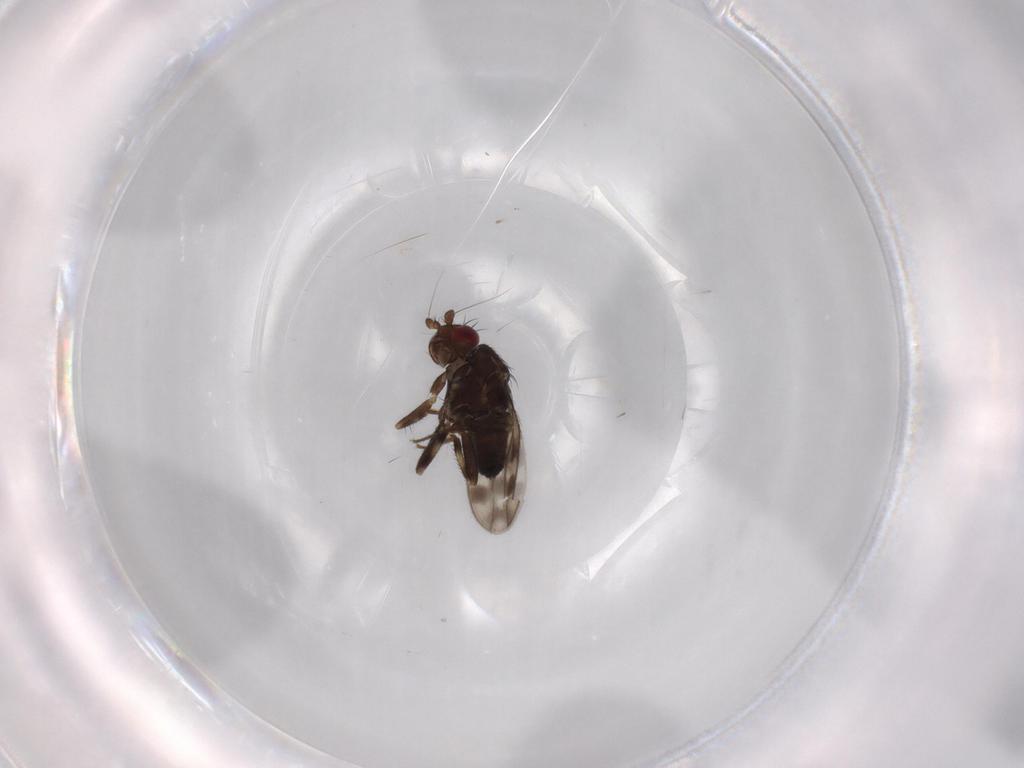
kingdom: Animalia
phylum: Arthropoda
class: Insecta
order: Diptera
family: Sphaeroceridae
